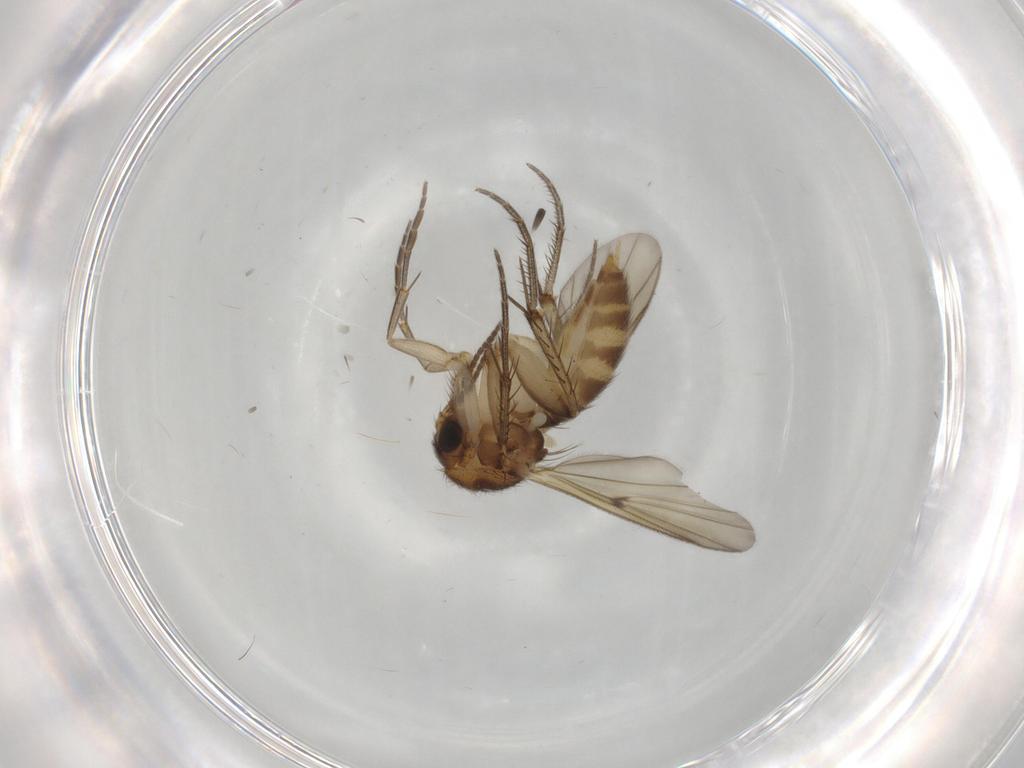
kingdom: Animalia
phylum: Arthropoda
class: Insecta
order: Diptera
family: Mycetophilidae
